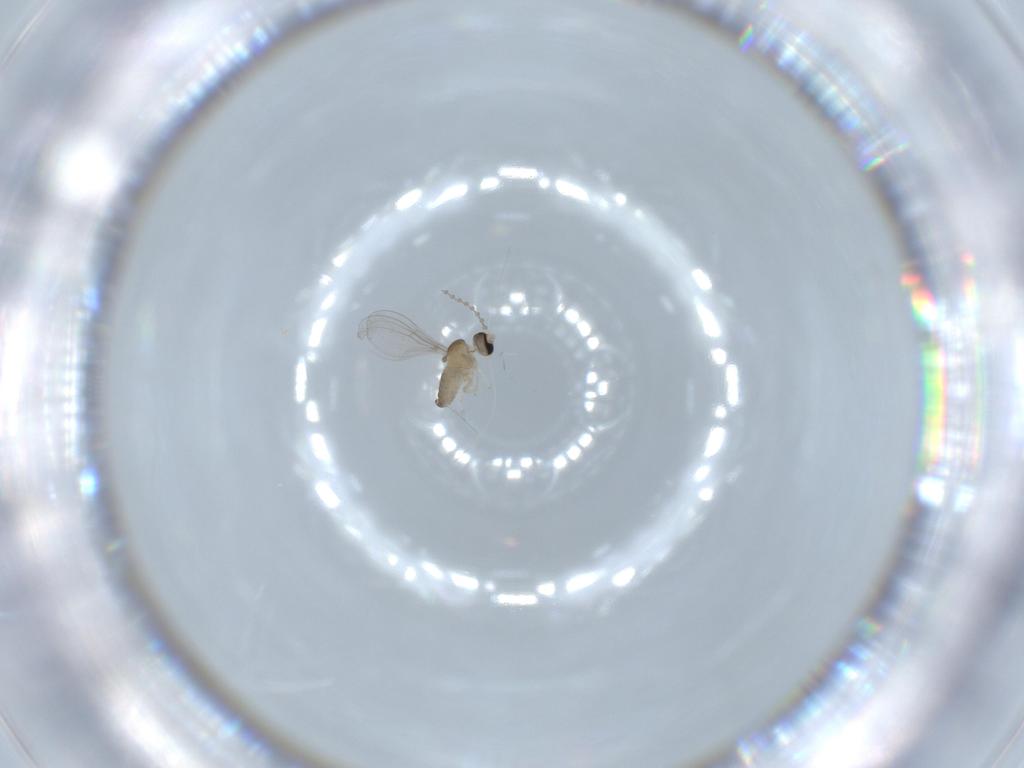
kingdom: Animalia
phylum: Arthropoda
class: Insecta
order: Diptera
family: Cecidomyiidae
